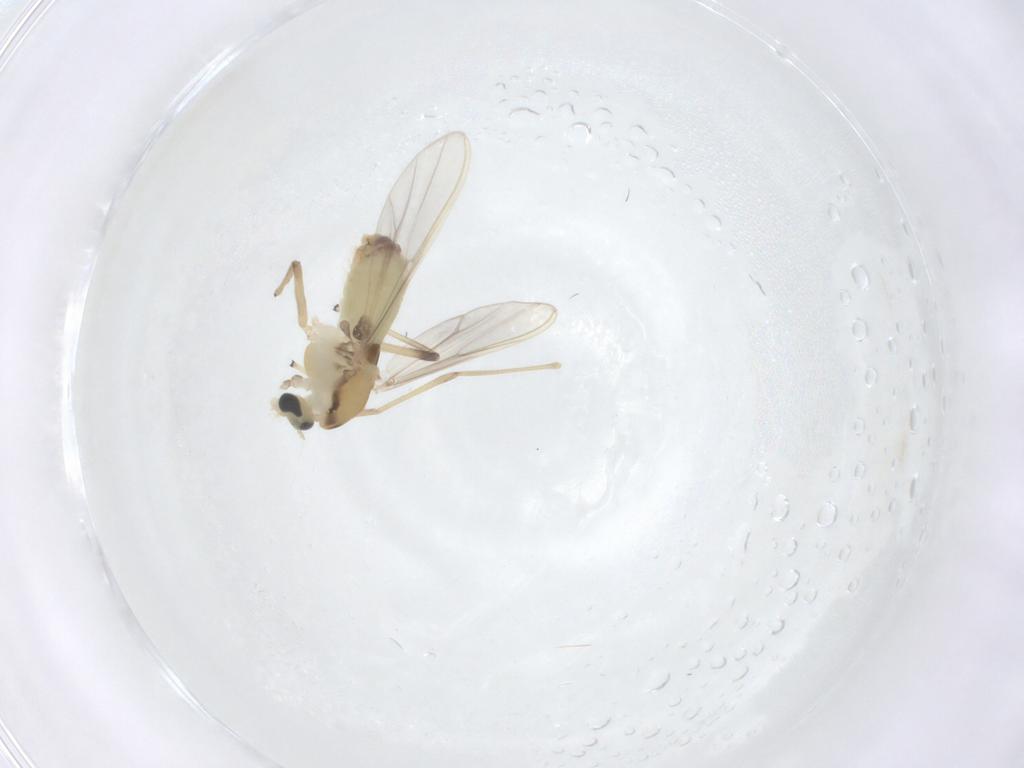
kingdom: Animalia
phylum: Arthropoda
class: Insecta
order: Diptera
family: Chironomidae
